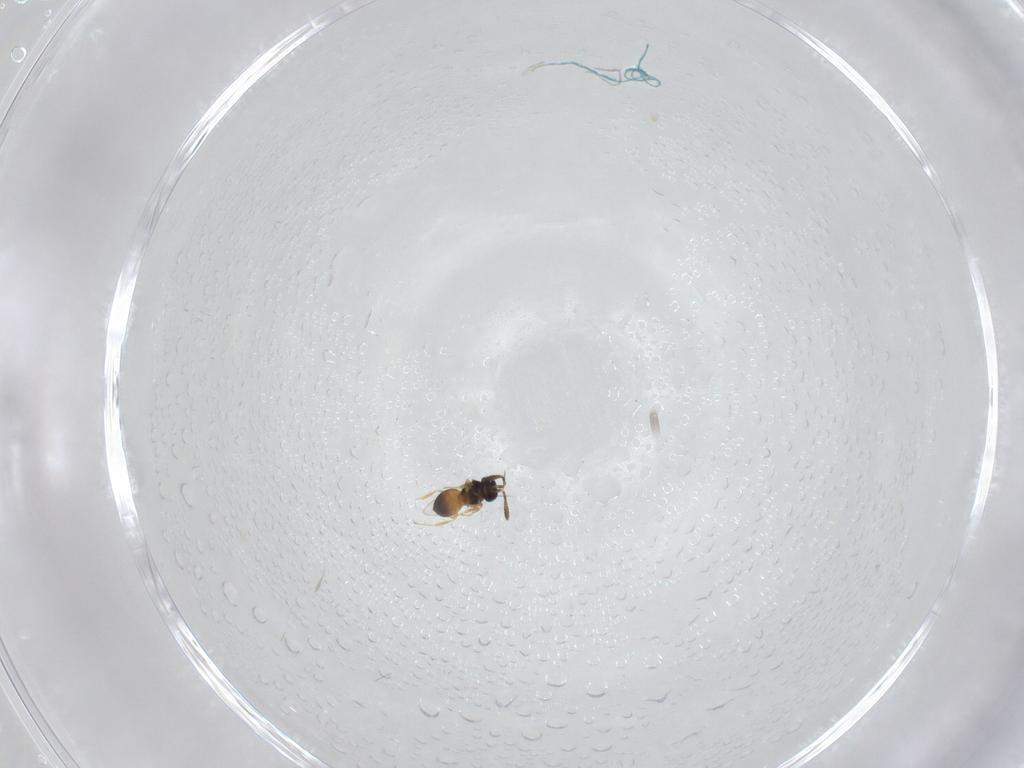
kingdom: Animalia
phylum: Arthropoda
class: Insecta
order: Hymenoptera
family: Scelionidae
